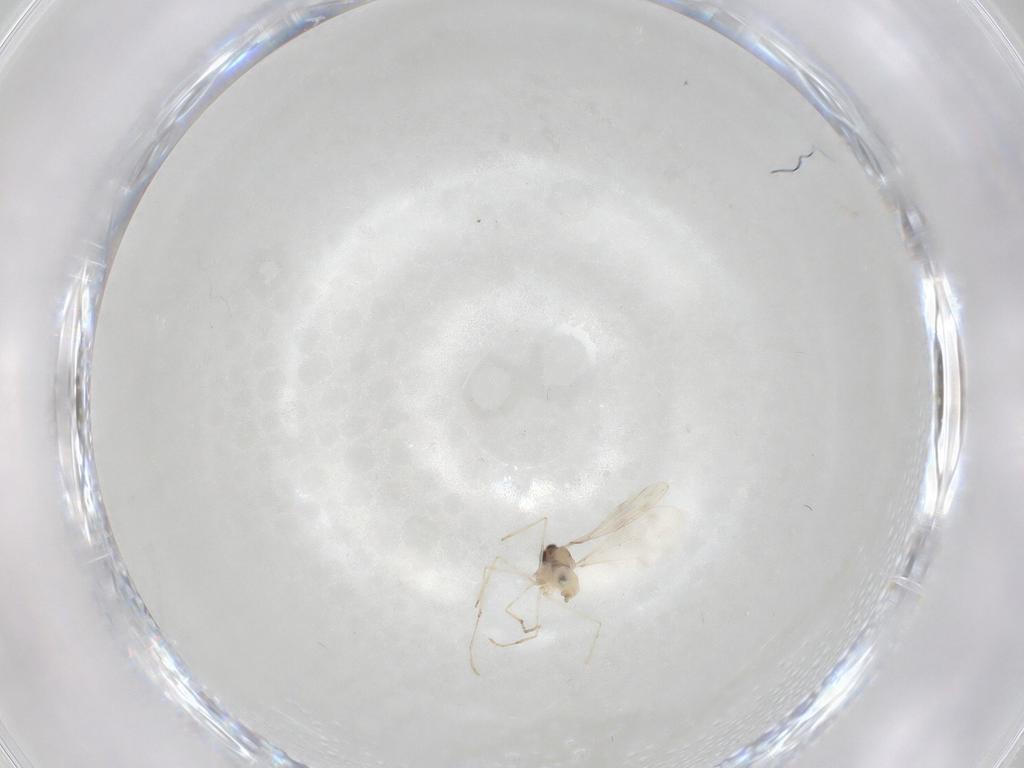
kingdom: Animalia
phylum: Arthropoda
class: Insecta
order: Diptera
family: Cecidomyiidae
